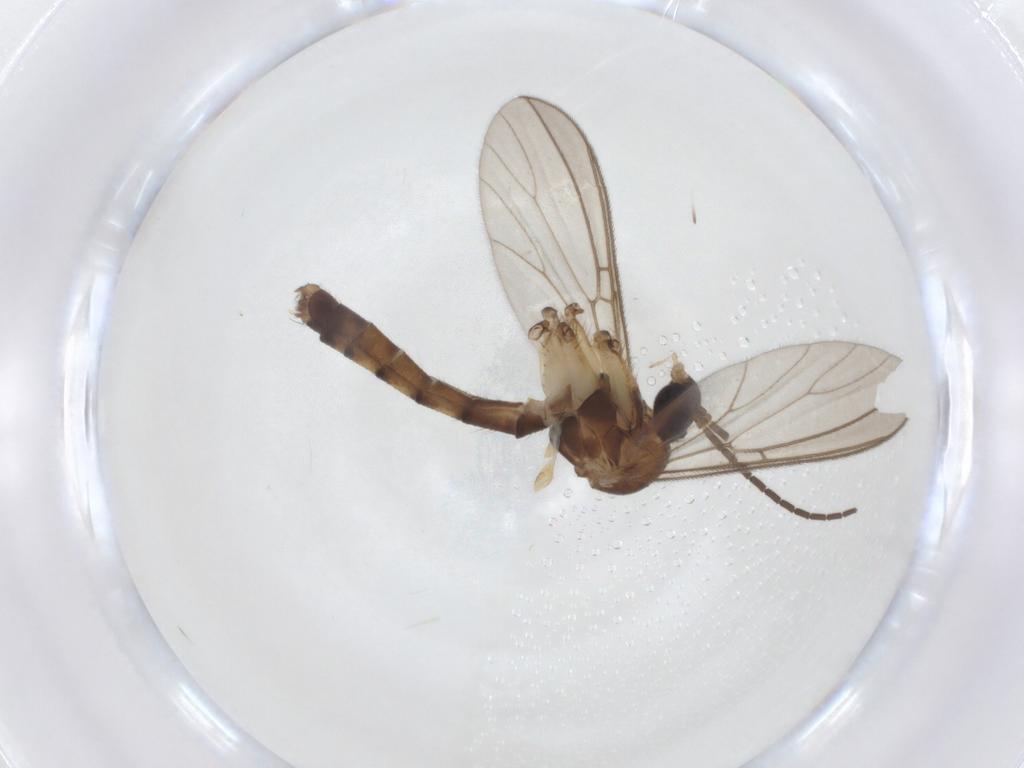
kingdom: Animalia
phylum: Arthropoda
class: Insecta
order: Diptera
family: Mycetophilidae
